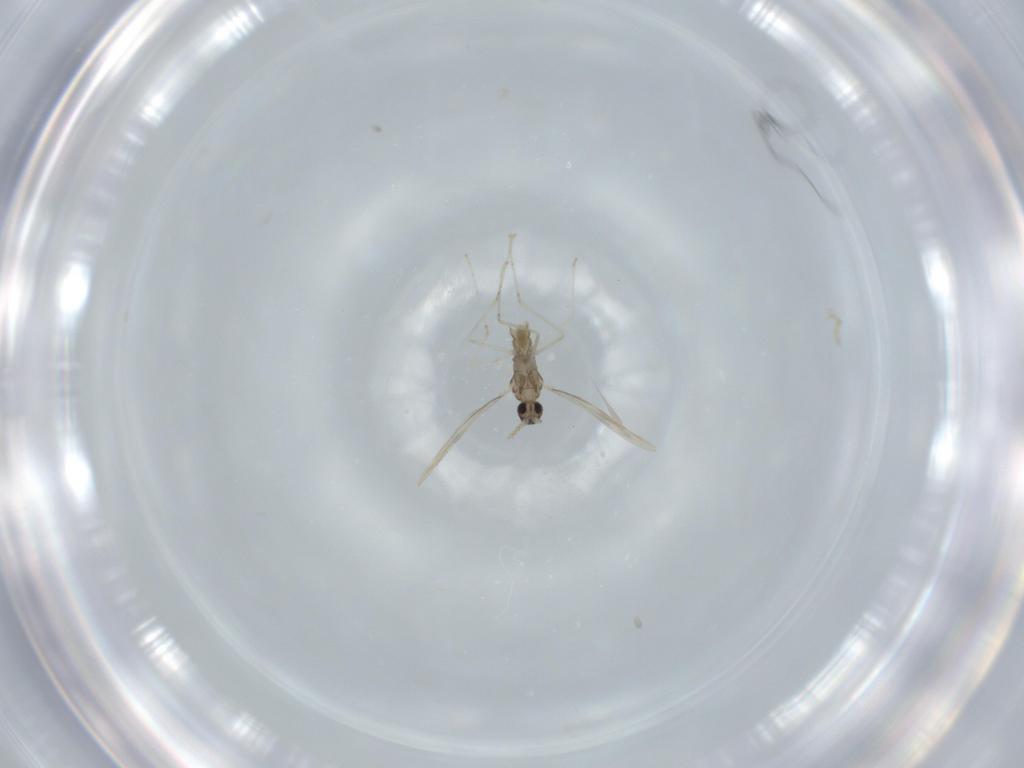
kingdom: Animalia
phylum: Arthropoda
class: Insecta
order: Diptera
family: Cecidomyiidae
